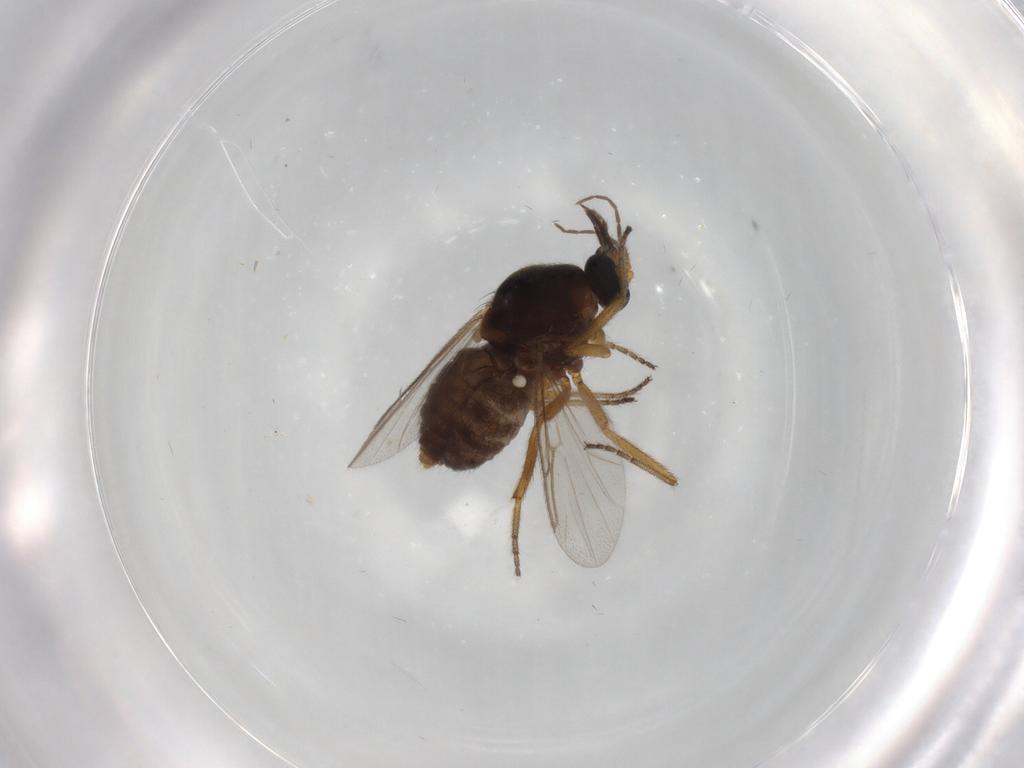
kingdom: Animalia
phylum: Arthropoda
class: Insecta
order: Diptera
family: Ceratopogonidae
